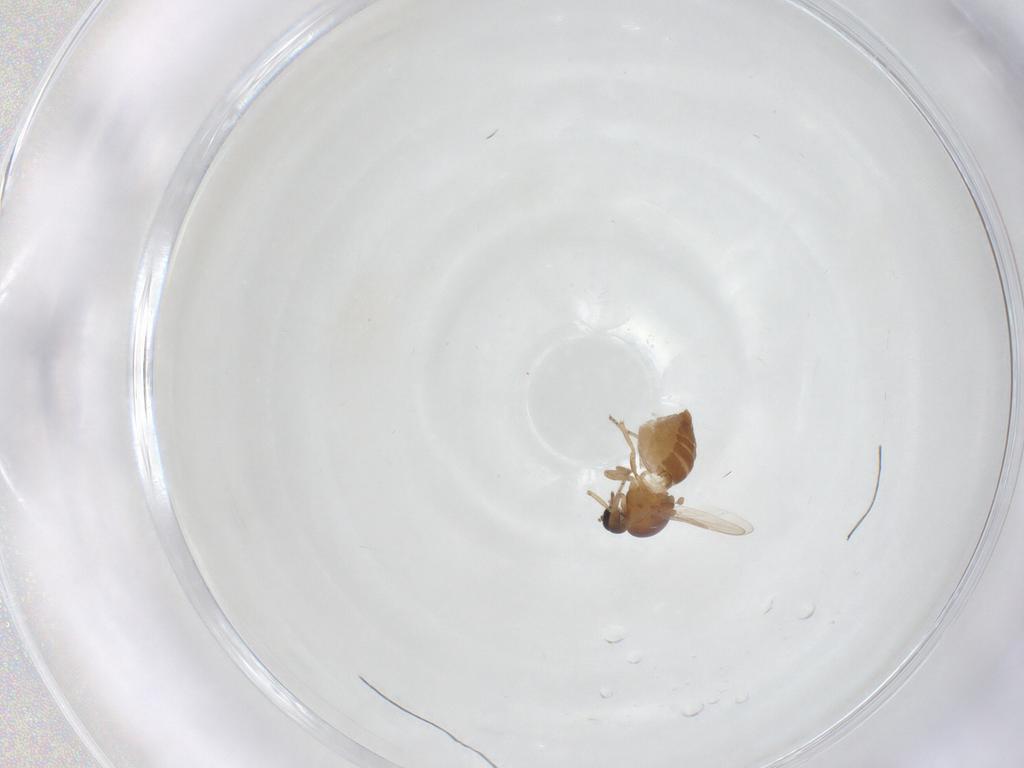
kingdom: Animalia
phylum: Arthropoda
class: Insecta
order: Diptera
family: Ceratopogonidae
